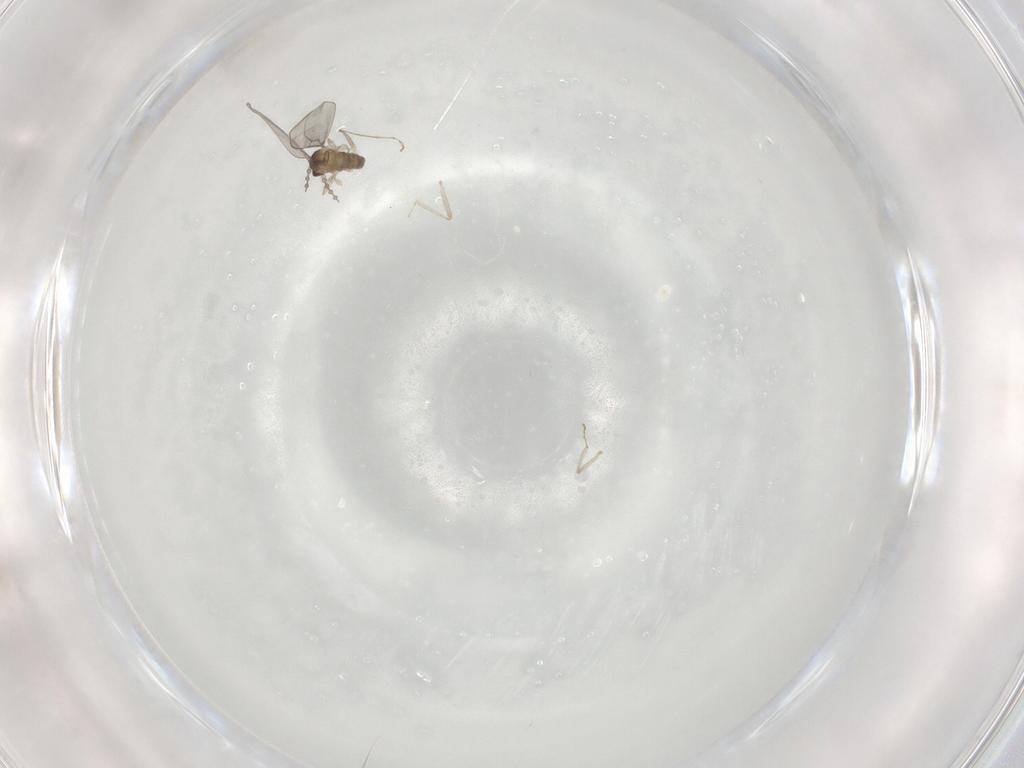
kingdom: Animalia
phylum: Arthropoda
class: Insecta
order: Diptera
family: Cecidomyiidae
